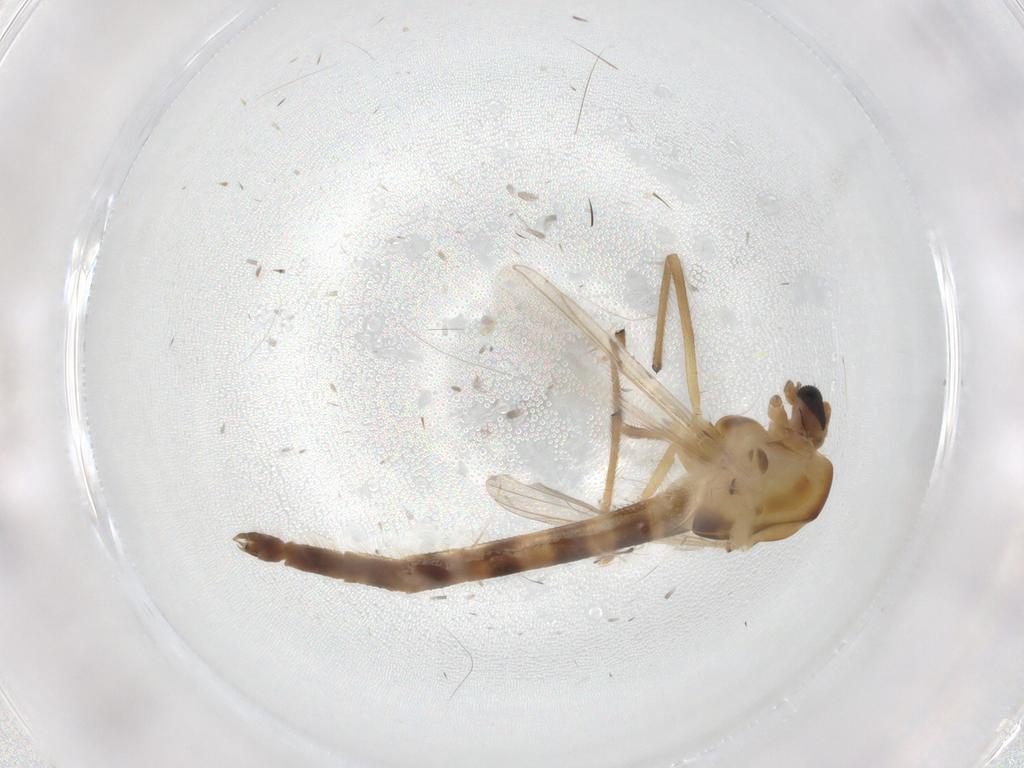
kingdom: Animalia
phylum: Arthropoda
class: Insecta
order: Diptera
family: Chironomidae
